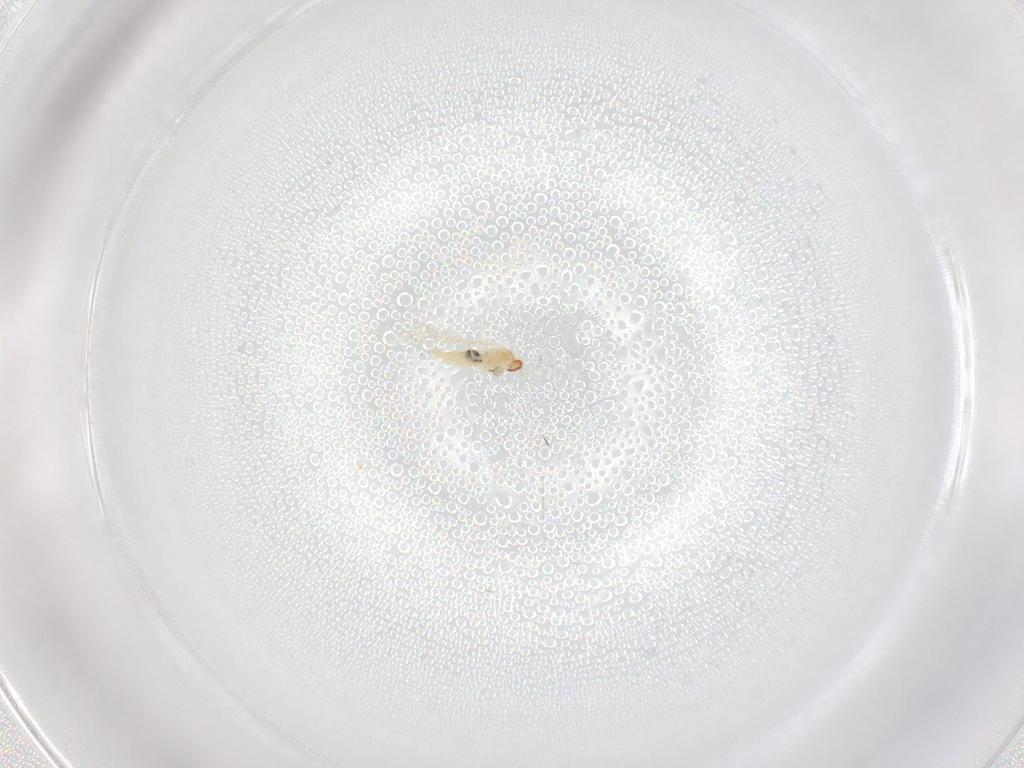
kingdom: Animalia
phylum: Arthropoda
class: Insecta
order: Diptera
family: Cecidomyiidae
